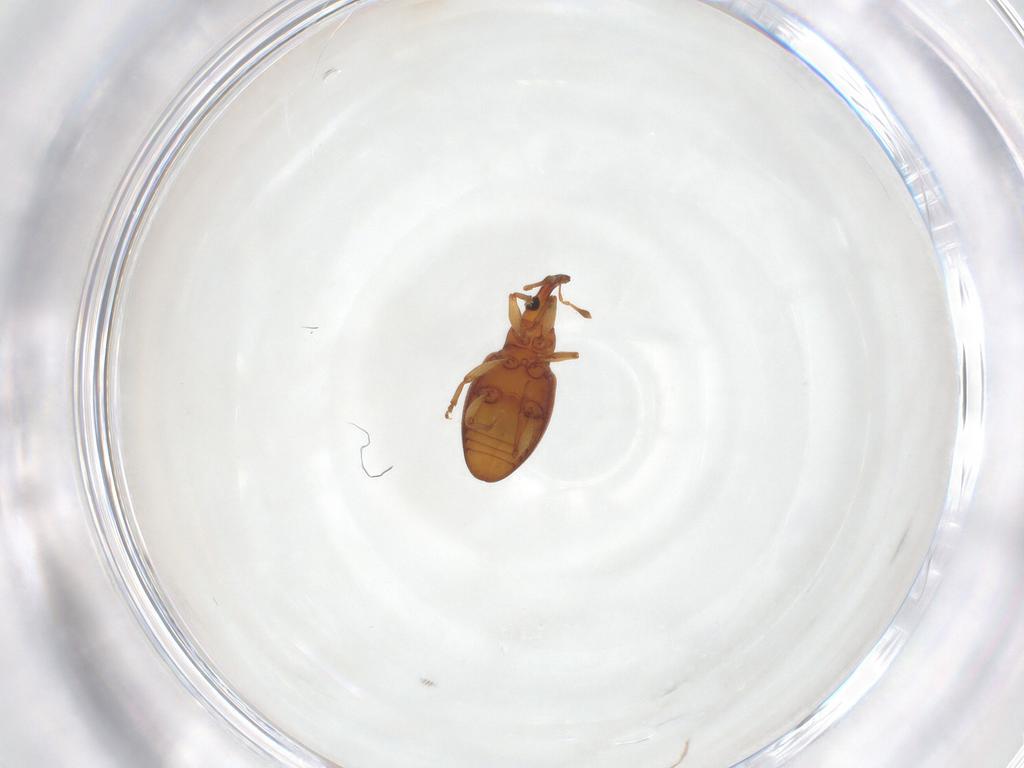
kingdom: Animalia
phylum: Arthropoda
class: Insecta
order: Coleoptera
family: Curculionidae
